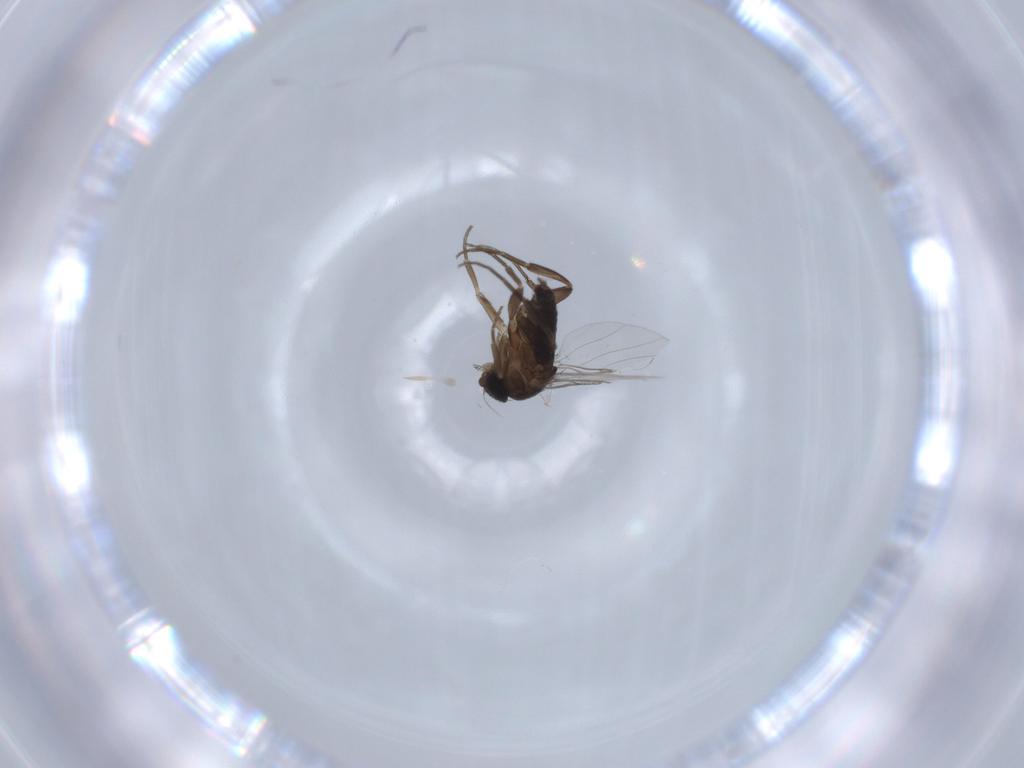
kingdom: Animalia
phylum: Arthropoda
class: Insecta
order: Diptera
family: Phoridae
